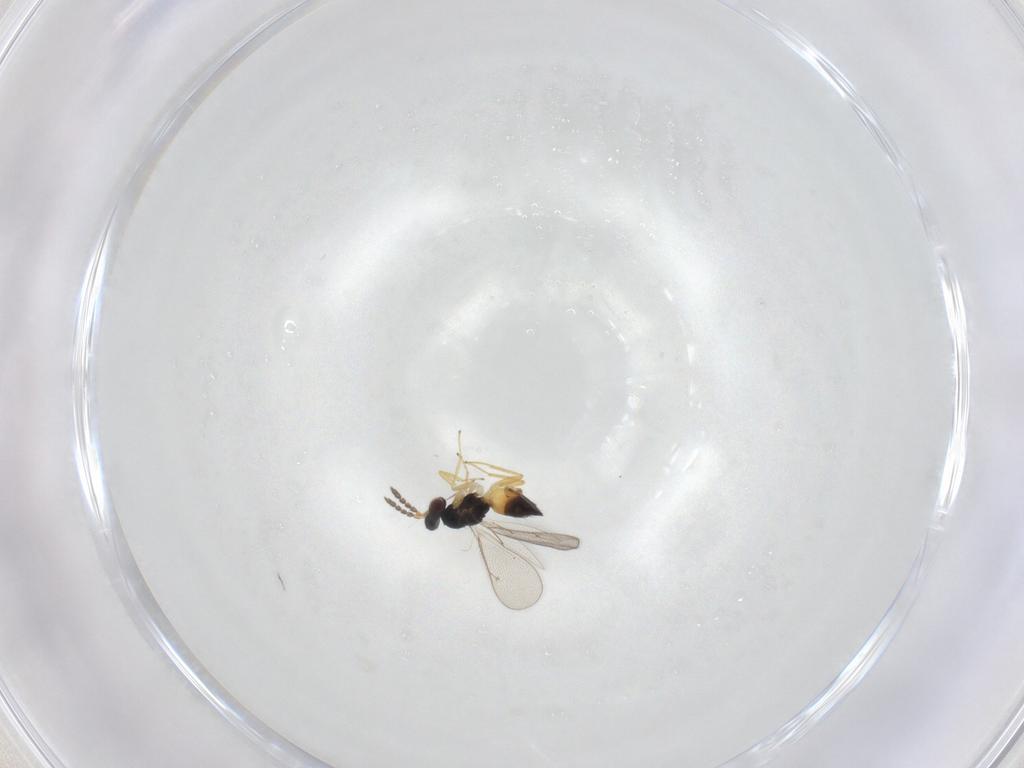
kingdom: Animalia
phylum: Arthropoda
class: Insecta
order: Hymenoptera
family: Eulophidae
